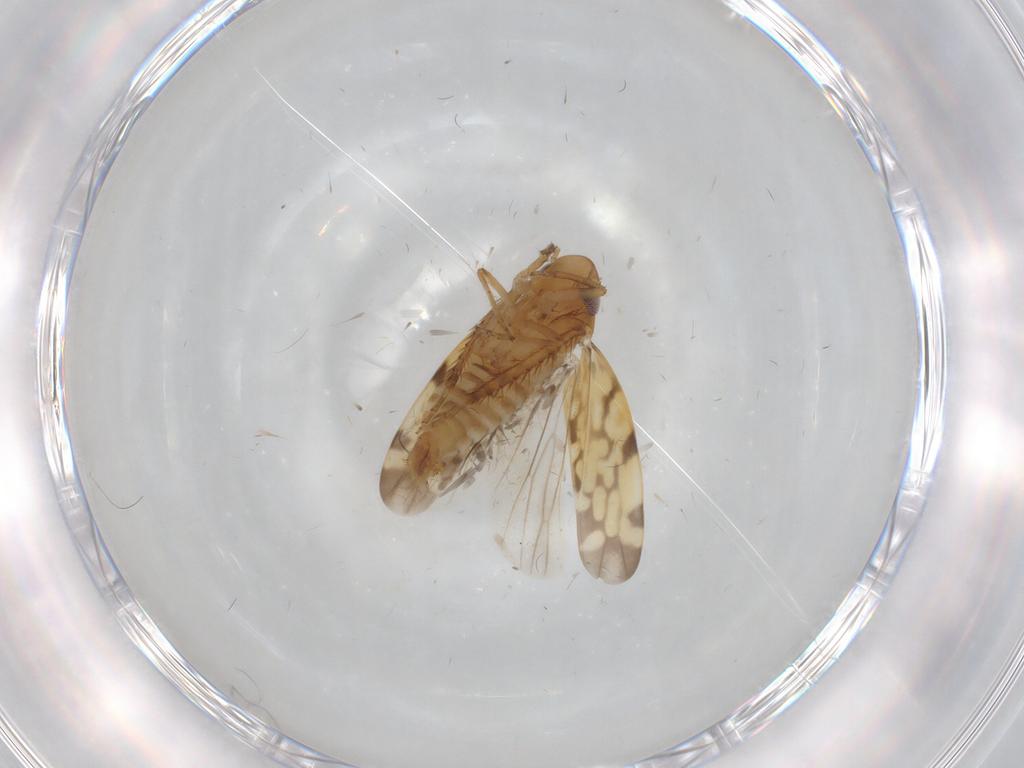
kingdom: Animalia
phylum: Arthropoda
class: Insecta
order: Hemiptera
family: Cicadellidae
